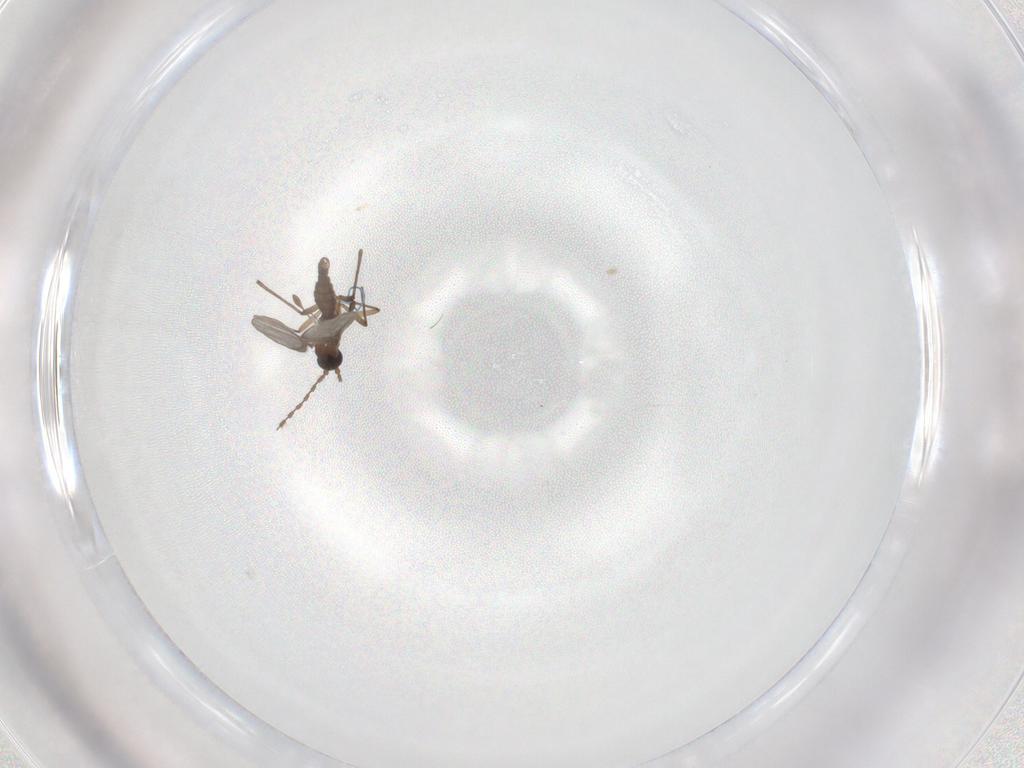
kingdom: Animalia
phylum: Arthropoda
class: Insecta
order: Diptera
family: Sciaridae
